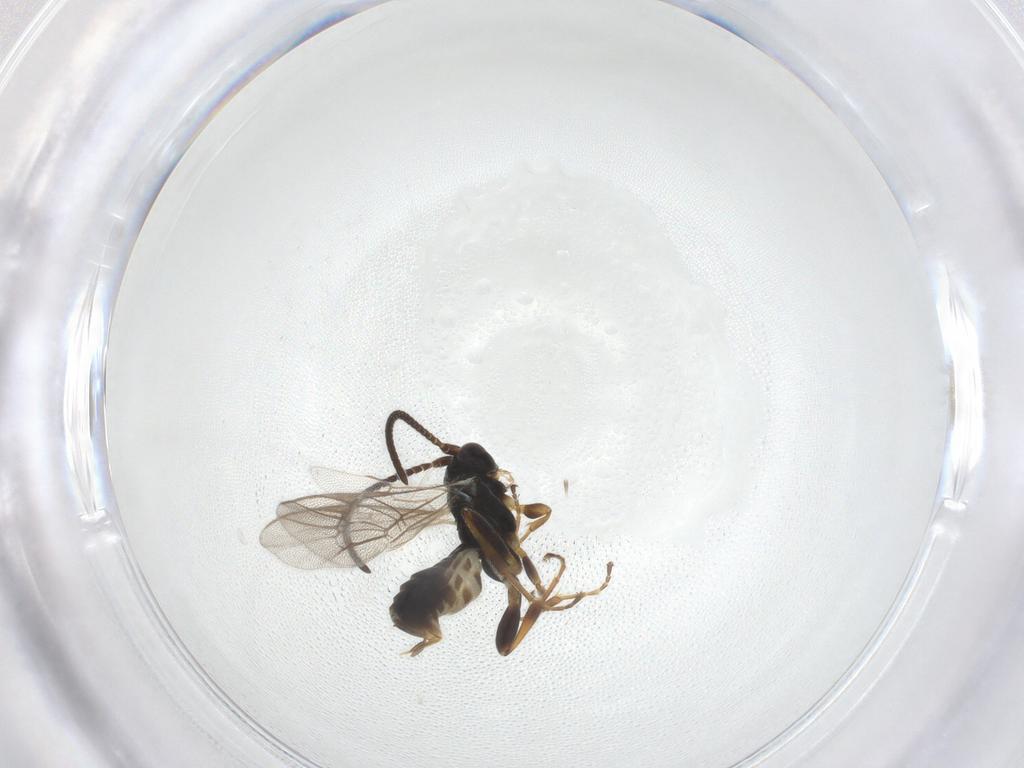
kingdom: Animalia
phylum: Arthropoda
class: Insecta
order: Hymenoptera
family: Ichneumonidae
